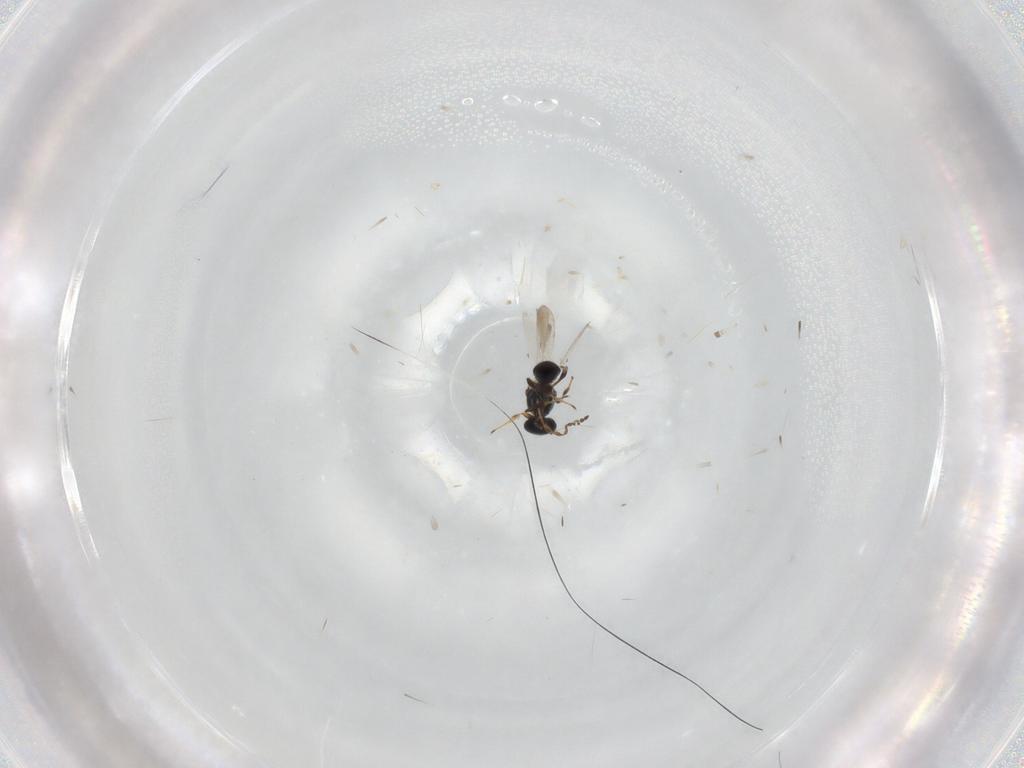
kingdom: Animalia
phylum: Arthropoda
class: Insecta
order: Hymenoptera
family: Platygastridae
